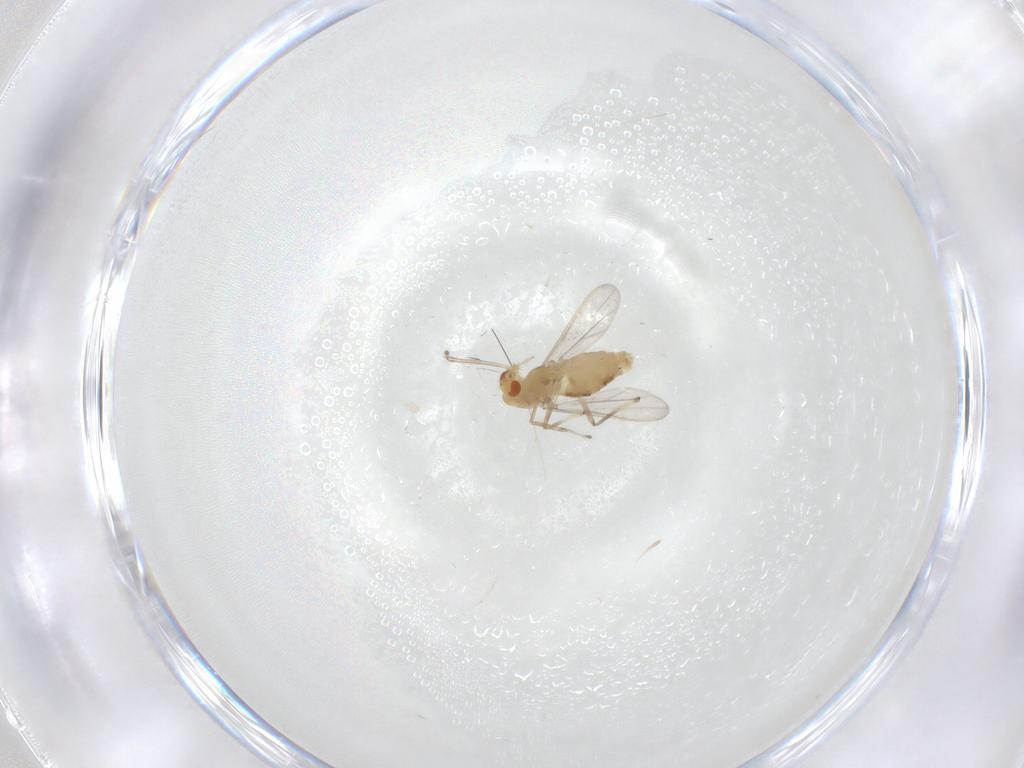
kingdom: Animalia
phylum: Arthropoda
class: Insecta
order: Diptera
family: Chironomidae
